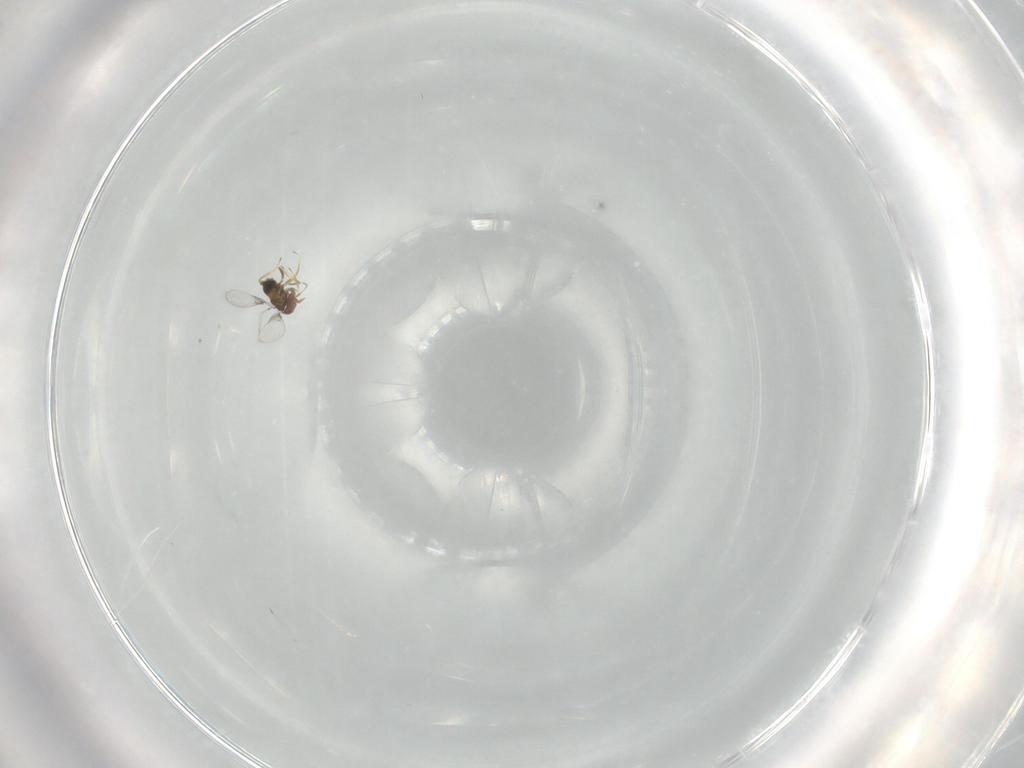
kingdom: Animalia
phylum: Arthropoda
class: Insecta
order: Hymenoptera
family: Trichogrammatidae
